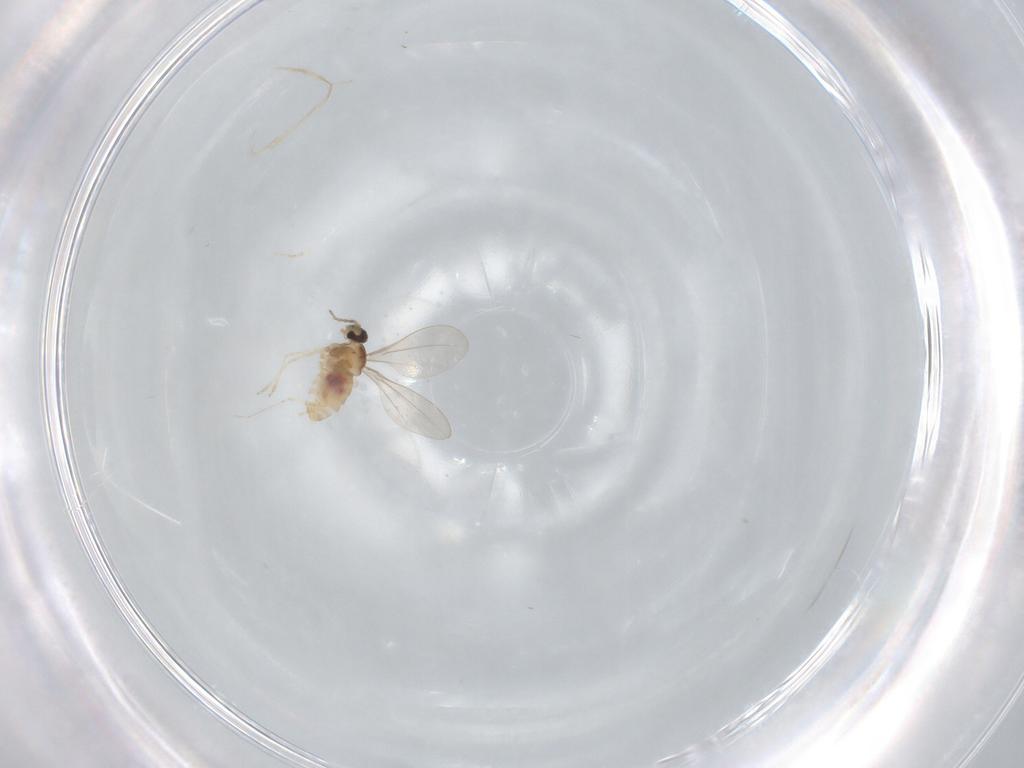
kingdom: Animalia
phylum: Arthropoda
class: Insecta
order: Diptera
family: Cecidomyiidae
